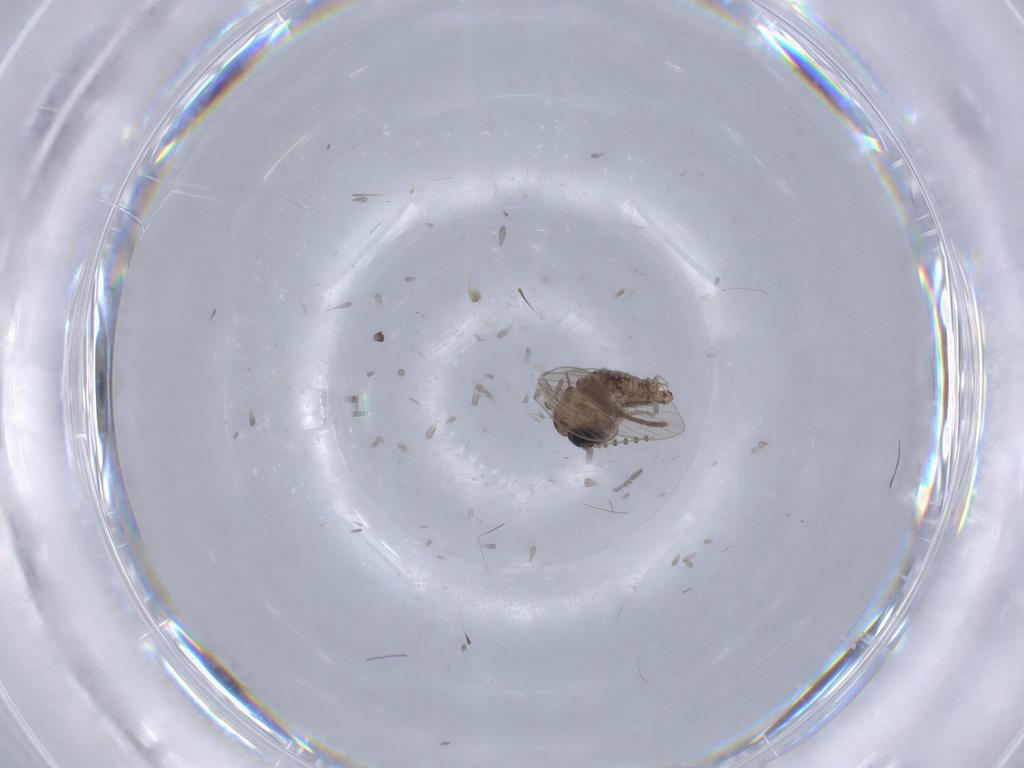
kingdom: Animalia
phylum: Arthropoda
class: Insecta
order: Diptera
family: Drosophilidae
